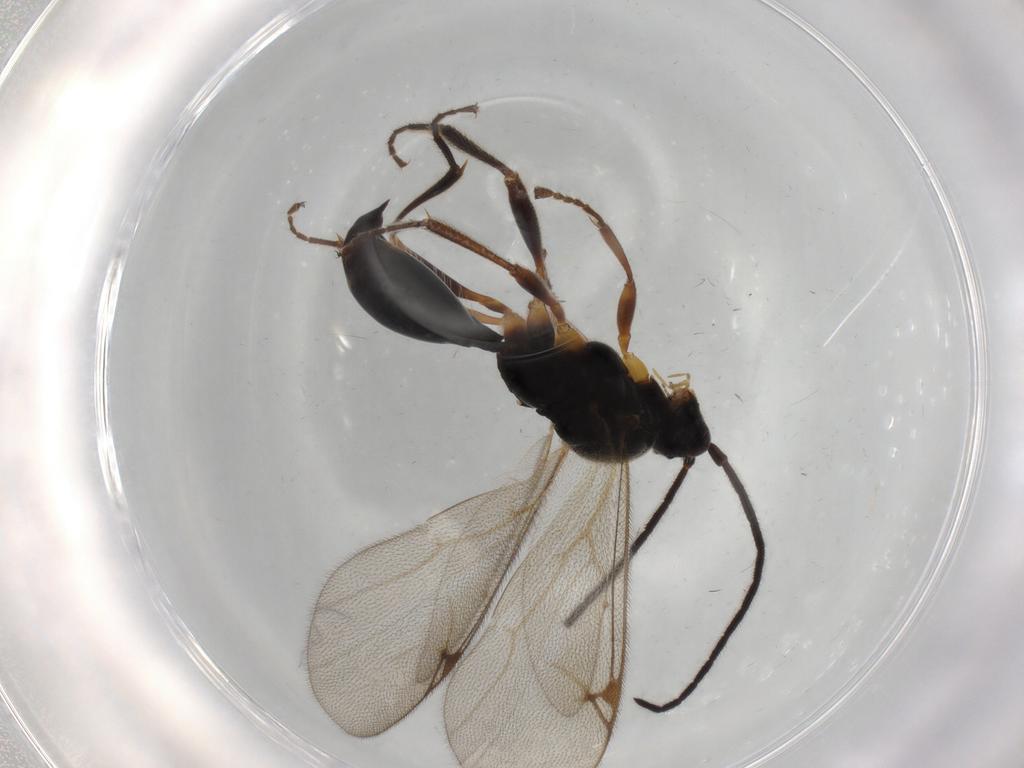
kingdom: Animalia
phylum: Arthropoda
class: Insecta
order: Hymenoptera
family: Proctotrupidae
